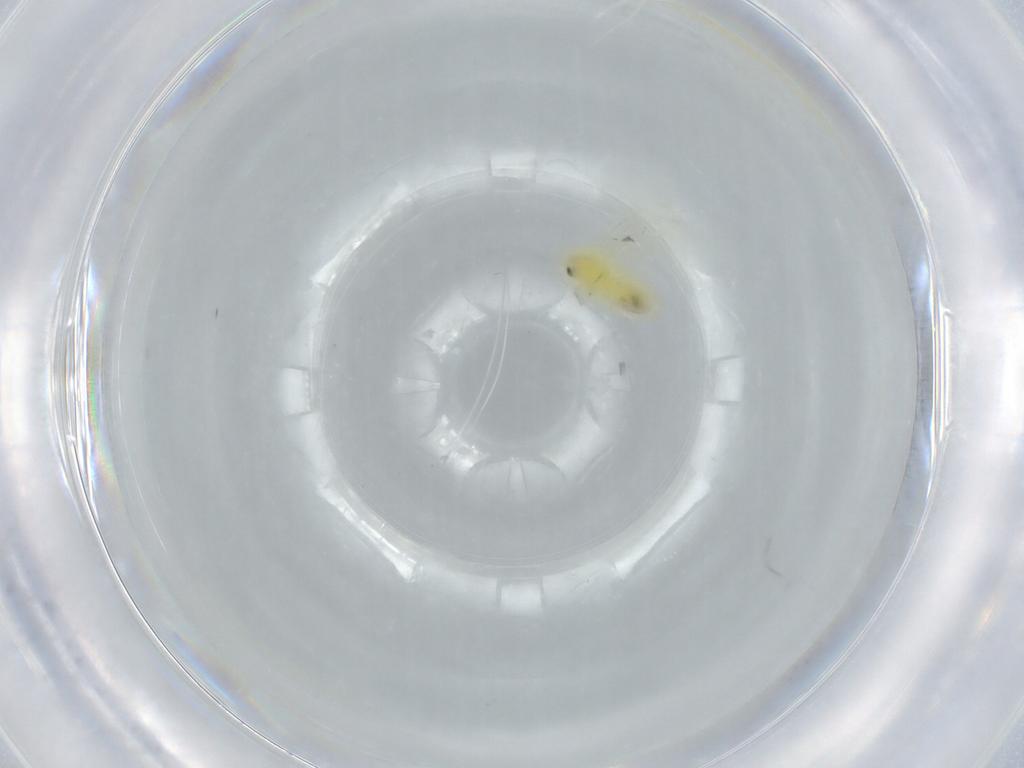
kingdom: Animalia
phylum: Arthropoda
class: Insecta
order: Hemiptera
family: Aleyrodidae
